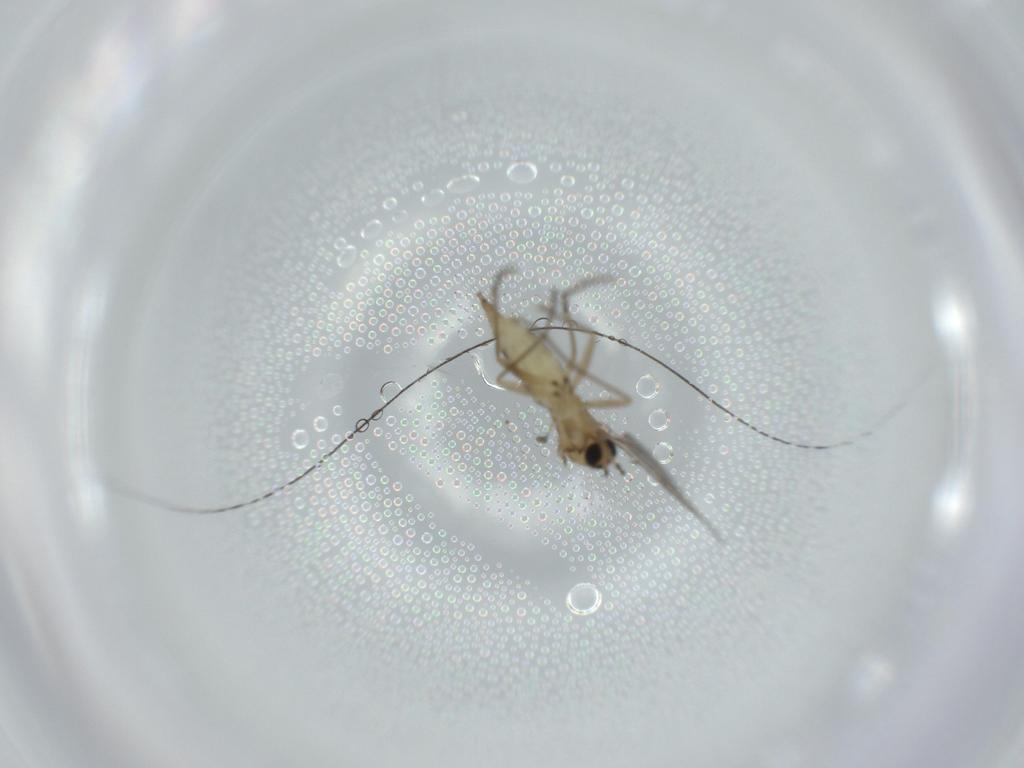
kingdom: Animalia
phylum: Arthropoda
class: Insecta
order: Diptera
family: Sciaridae
